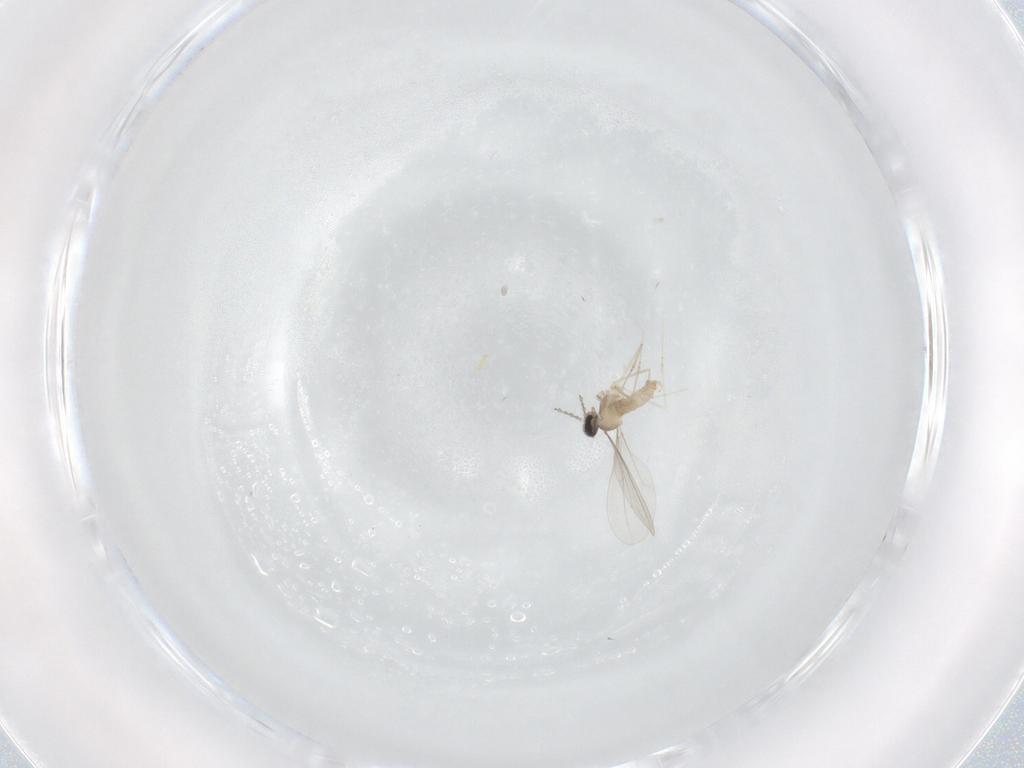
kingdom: Animalia
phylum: Arthropoda
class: Insecta
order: Diptera
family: Cecidomyiidae
